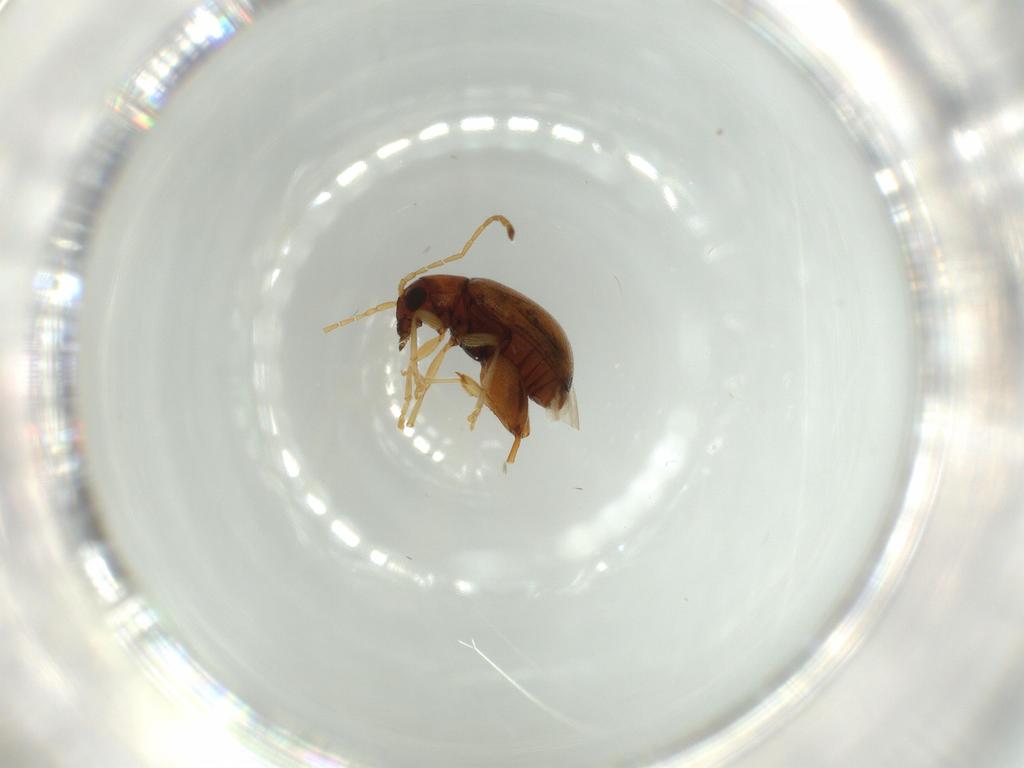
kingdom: Animalia
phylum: Arthropoda
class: Insecta
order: Coleoptera
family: Chrysomelidae
